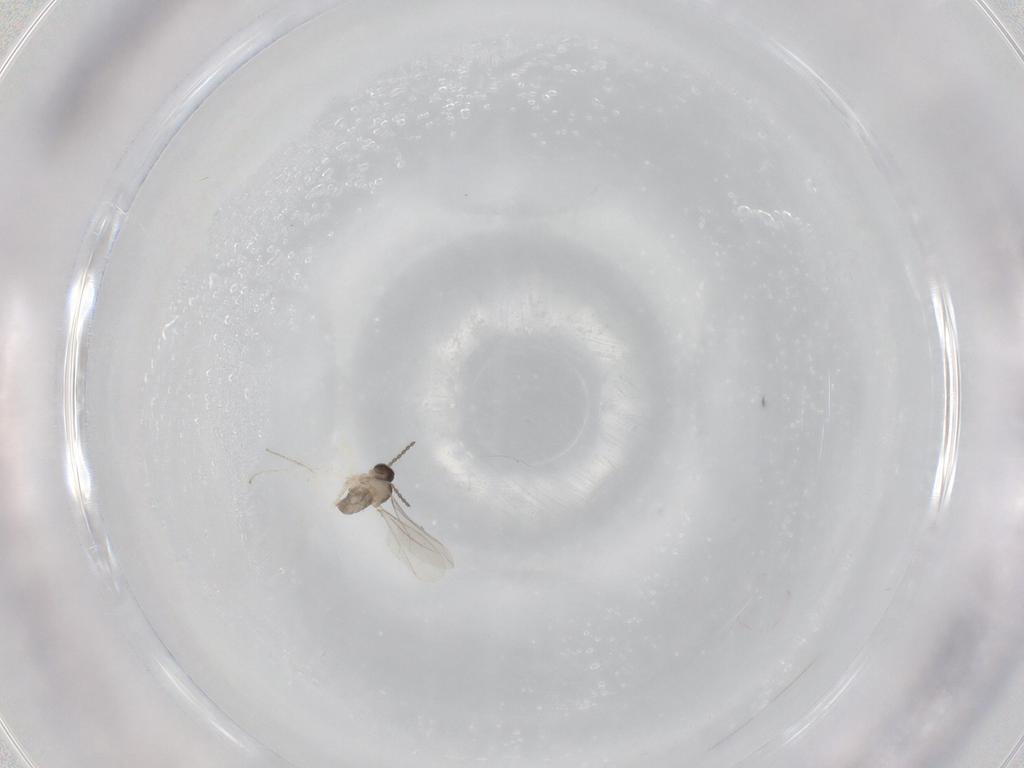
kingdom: Animalia
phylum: Arthropoda
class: Insecta
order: Diptera
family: Cecidomyiidae
